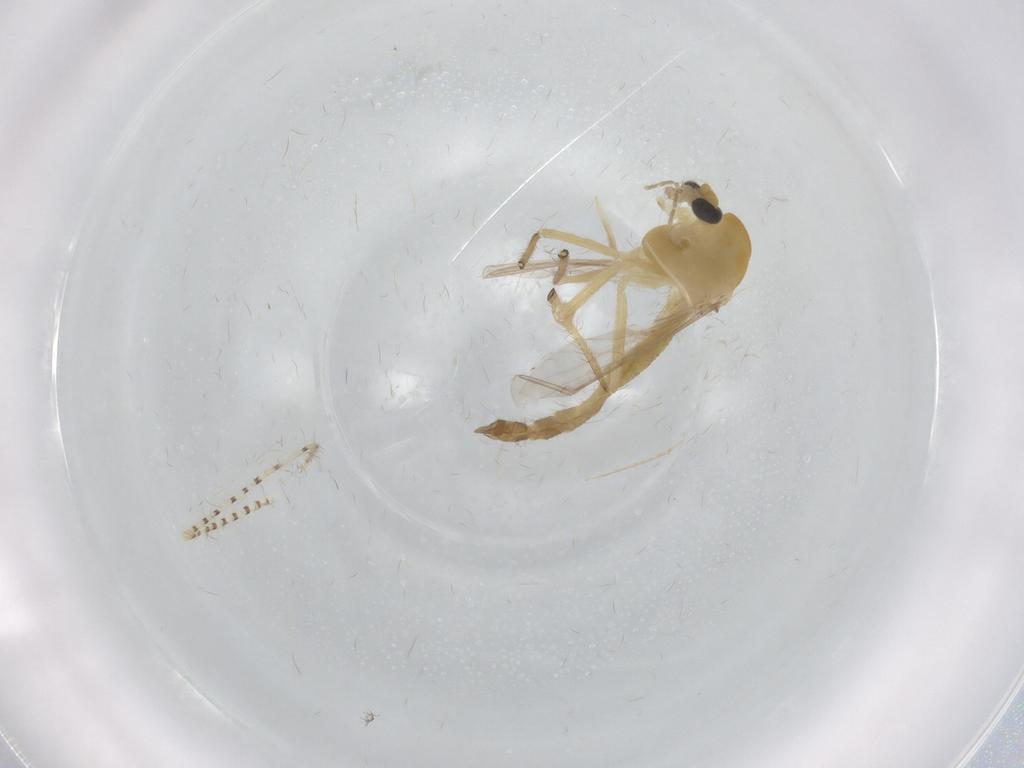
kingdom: Animalia
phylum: Arthropoda
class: Insecta
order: Diptera
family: Chironomidae
